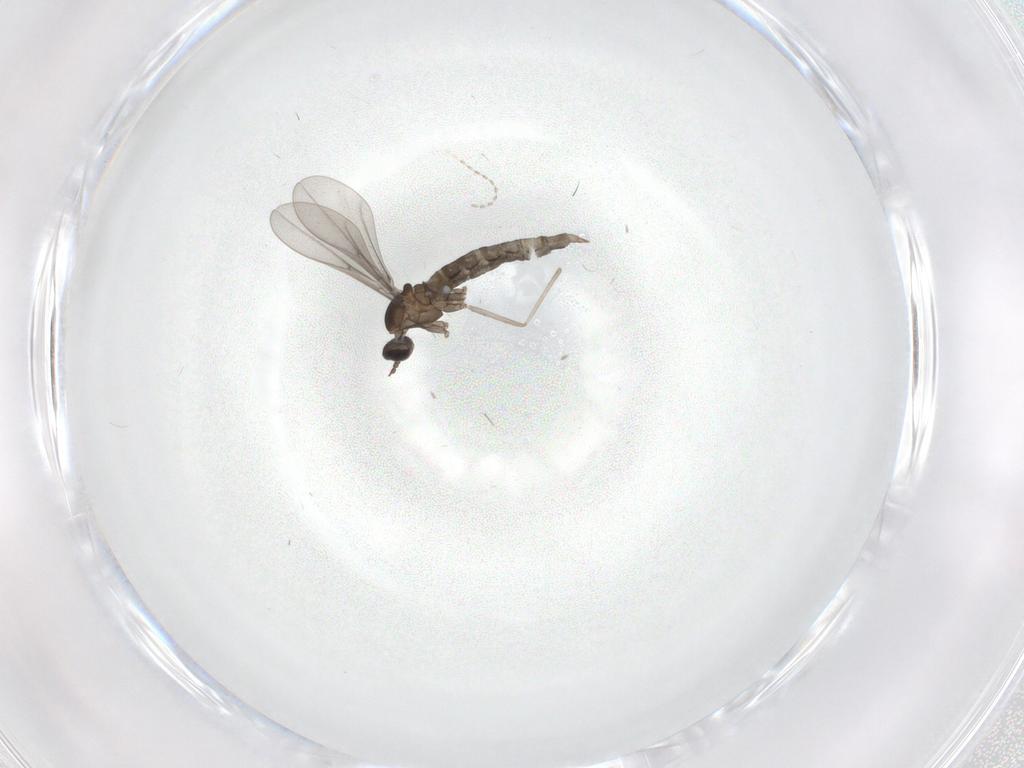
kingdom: Animalia
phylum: Arthropoda
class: Insecta
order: Diptera
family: Cecidomyiidae
